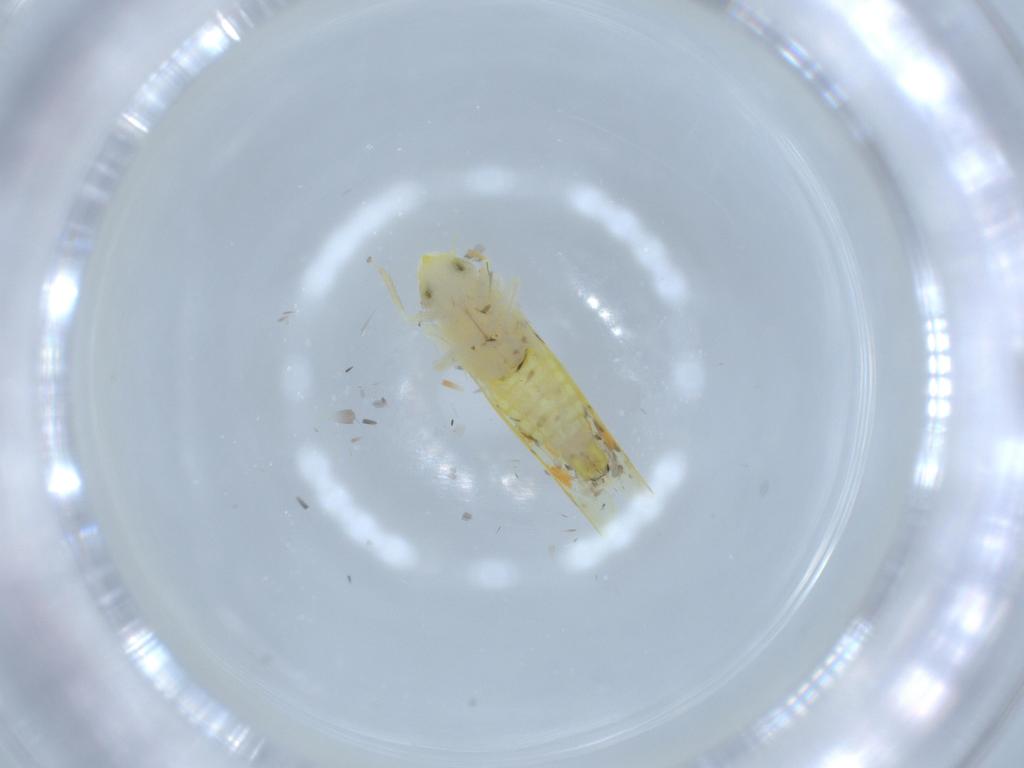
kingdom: Animalia
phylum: Arthropoda
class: Insecta
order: Hemiptera
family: Cicadellidae
